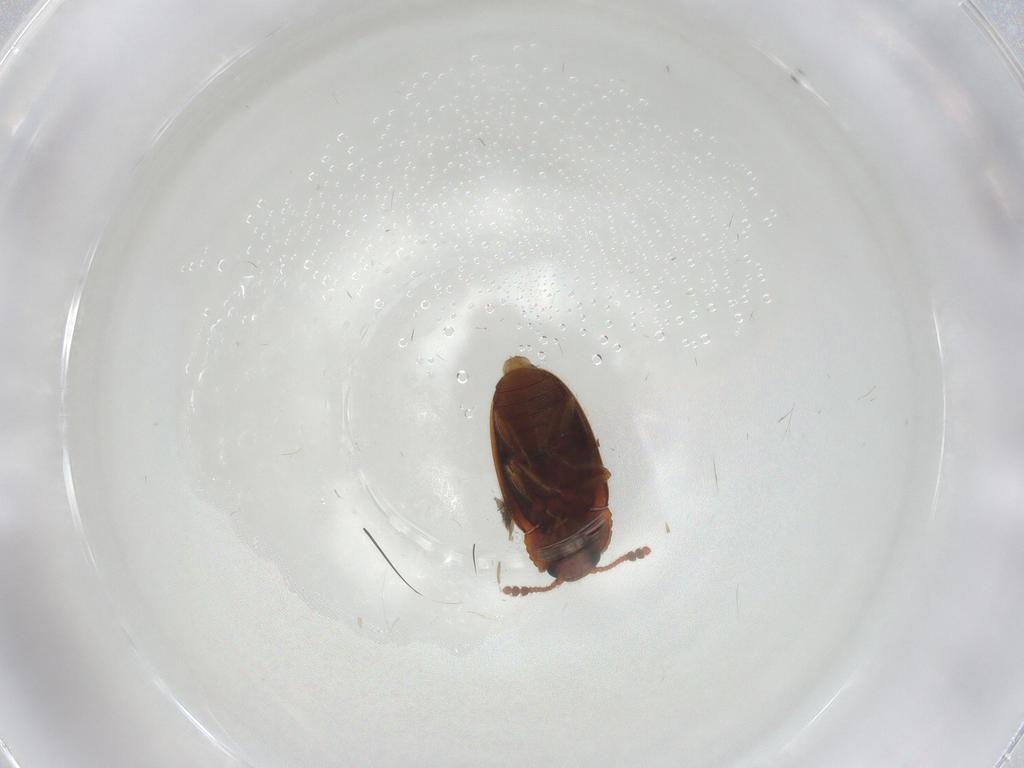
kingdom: Animalia
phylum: Arthropoda
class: Insecta
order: Coleoptera
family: Erotylidae
